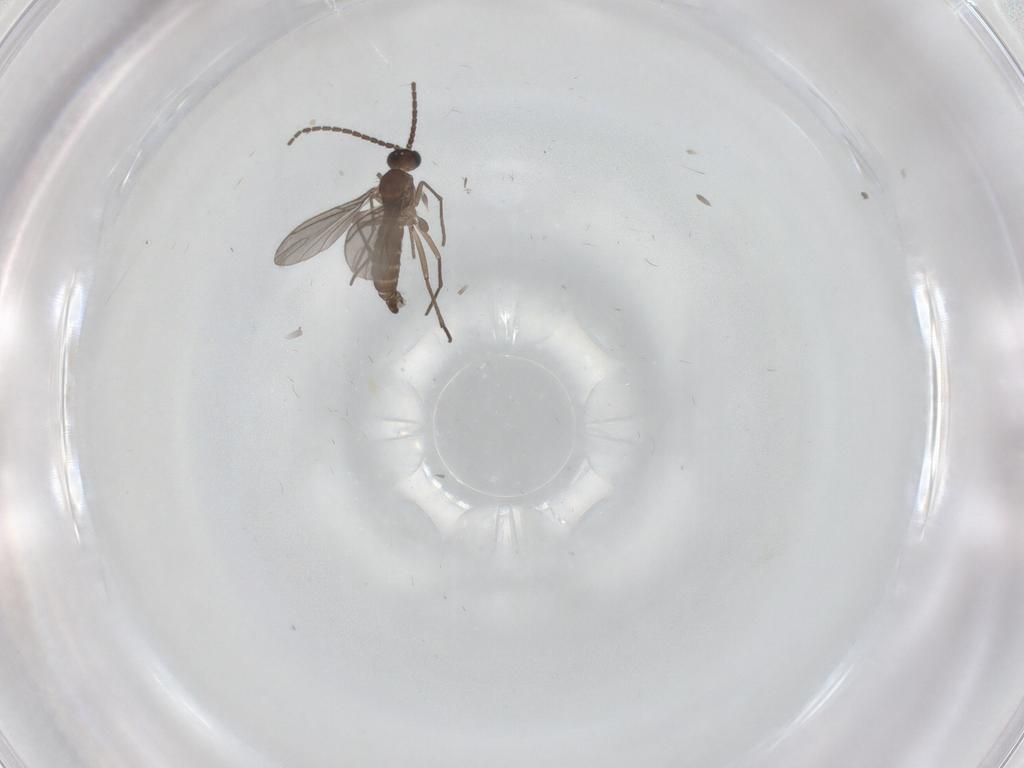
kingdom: Animalia
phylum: Arthropoda
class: Insecta
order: Diptera
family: Sciaridae
